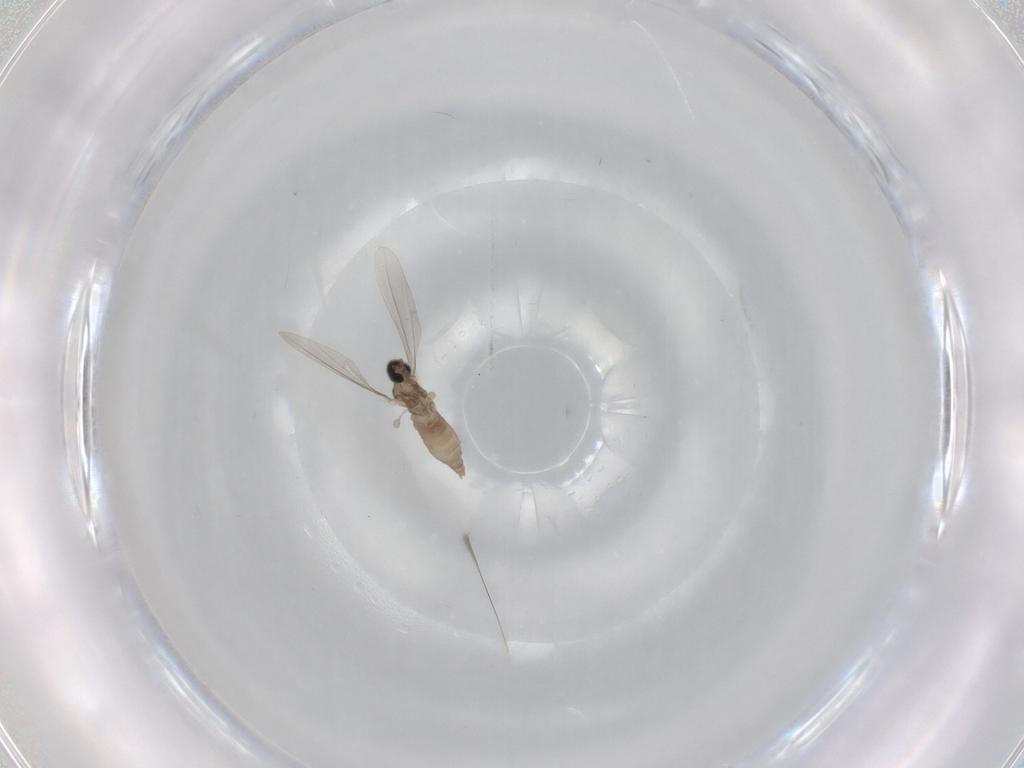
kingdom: Animalia
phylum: Arthropoda
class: Insecta
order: Diptera
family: Cecidomyiidae
